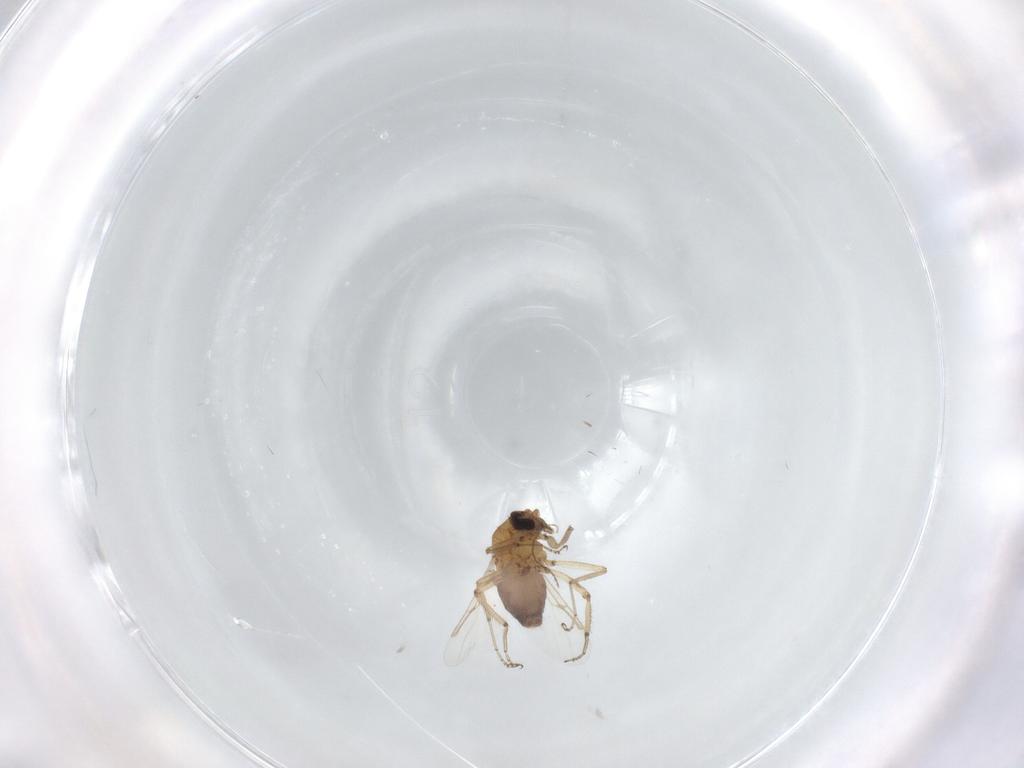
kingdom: Animalia
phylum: Arthropoda
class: Insecta
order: Diptera
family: Ceratopogonidae
